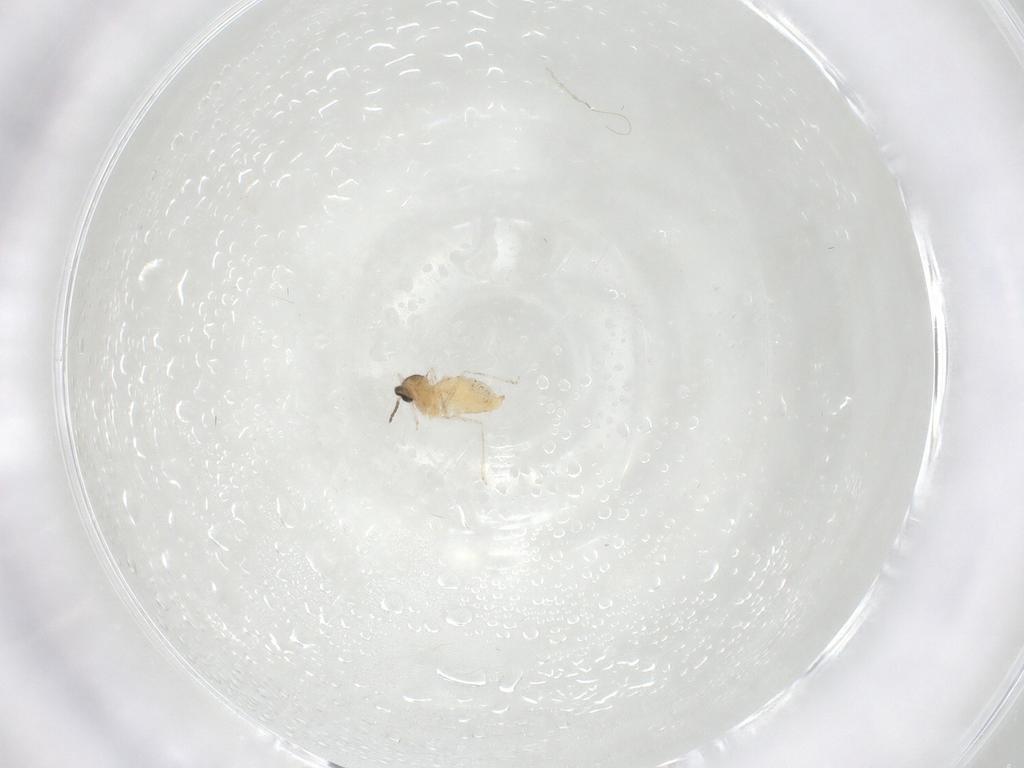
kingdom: Animalia
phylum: Arthropoda
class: Insecta
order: Diptera
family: Cecidomyiidae
